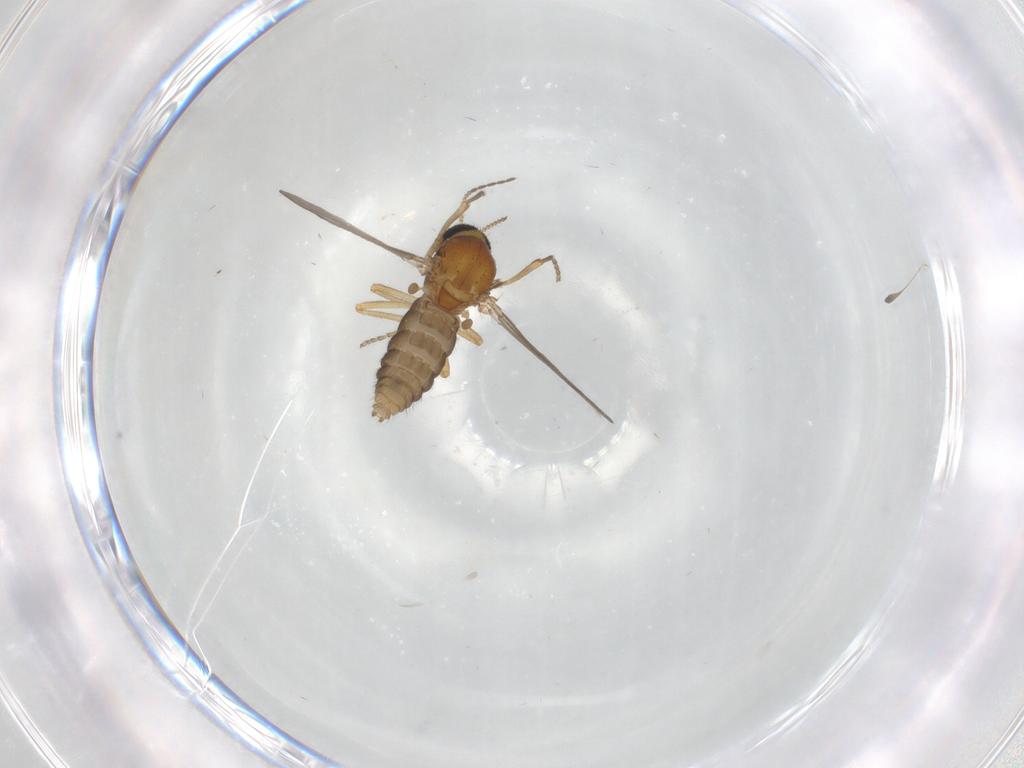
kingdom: Animalia
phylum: Arthropoda
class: Insecta
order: Diptera
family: Ceratopogonidae
